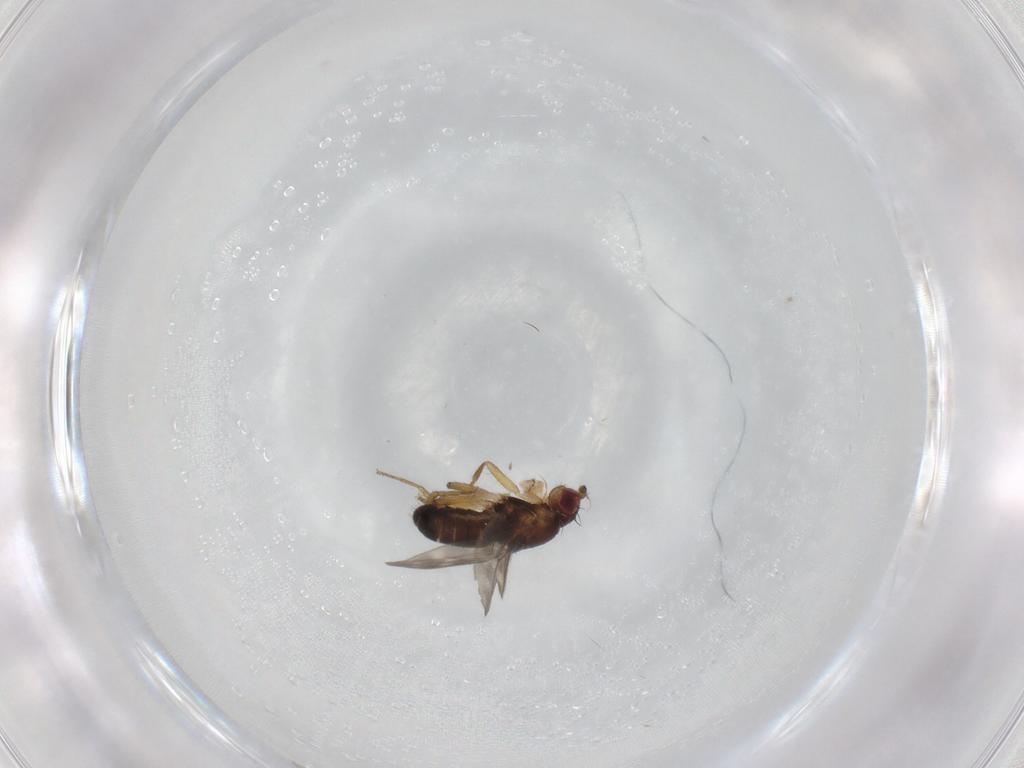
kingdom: Animalia
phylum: Arthropoda
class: Insecta
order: Diptera
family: Sphaeroceridae
